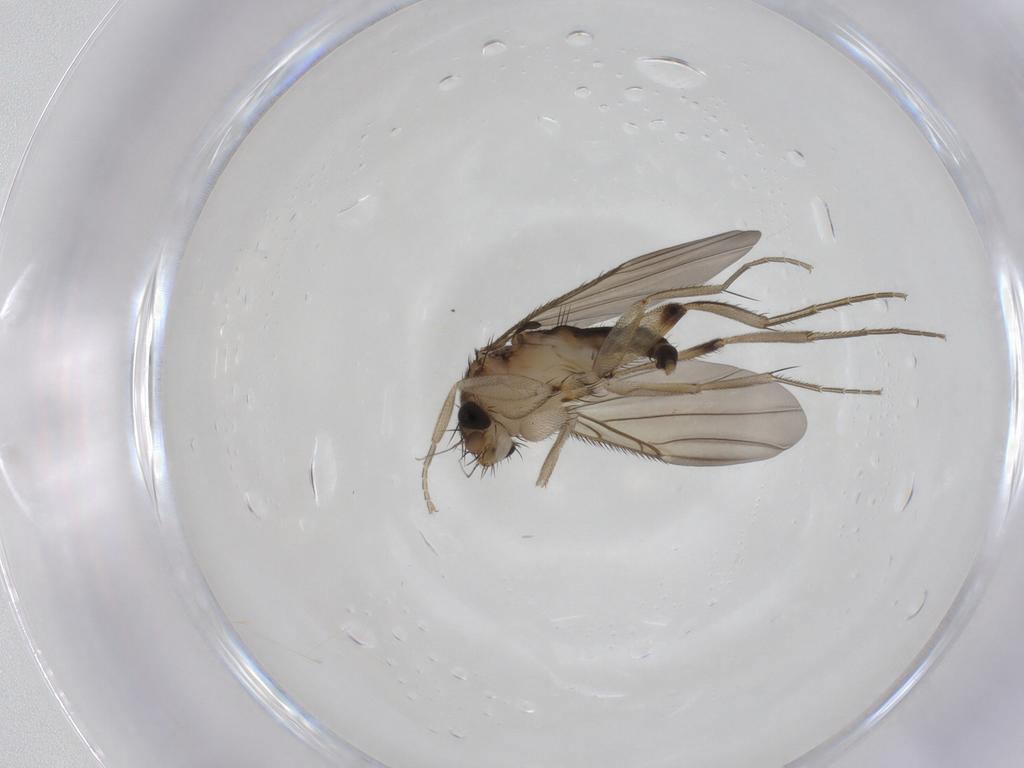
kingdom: Animalia
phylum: Arthropoda
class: Insecta
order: Diptera
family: Phoridae
